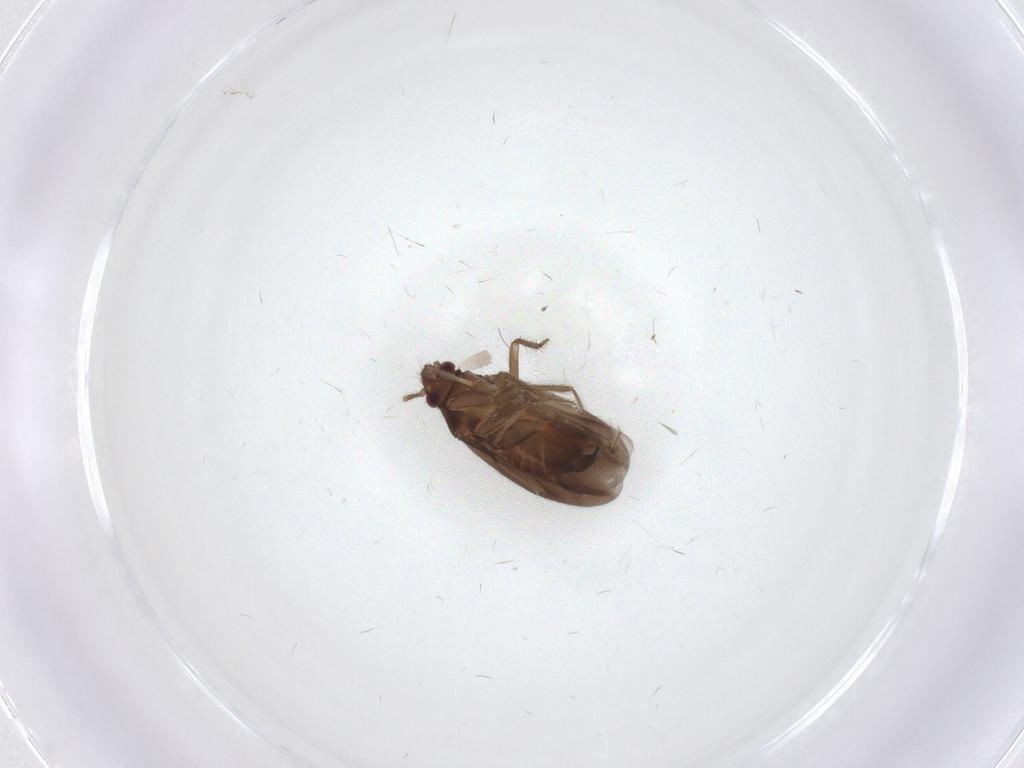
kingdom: Animalia
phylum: Arthropoda
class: Insecta
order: Hemiptera
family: Ceratocombidae
